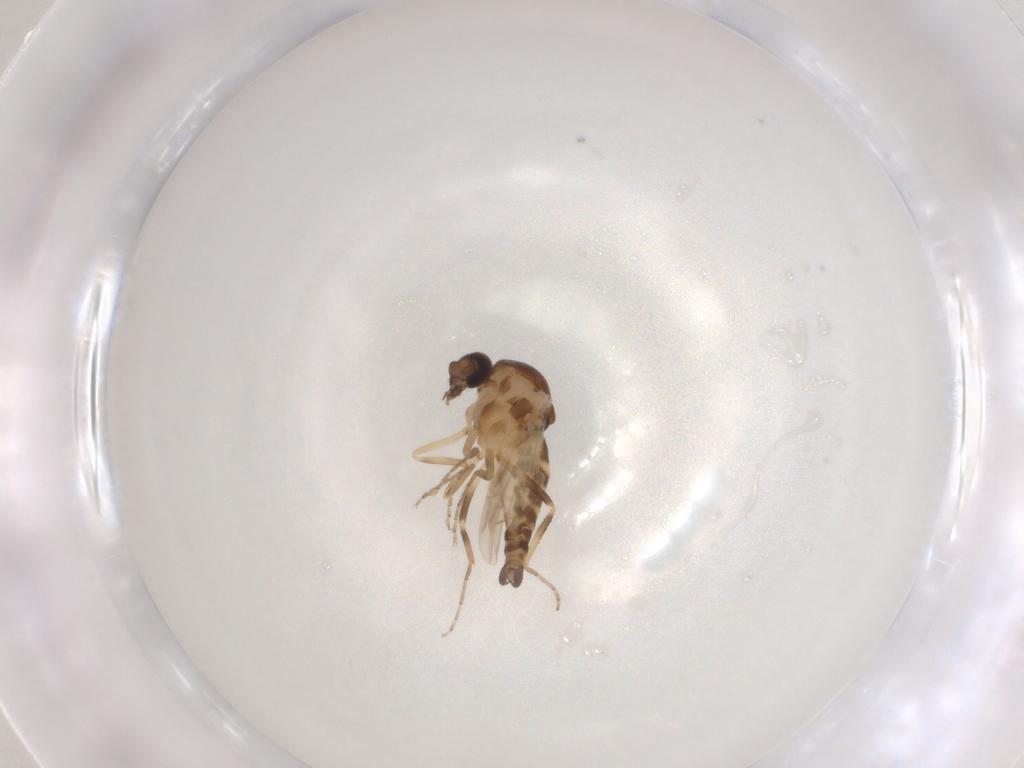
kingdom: Animalia
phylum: Arthropoda
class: Insecta
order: Diptera
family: Ceratopogonidae
